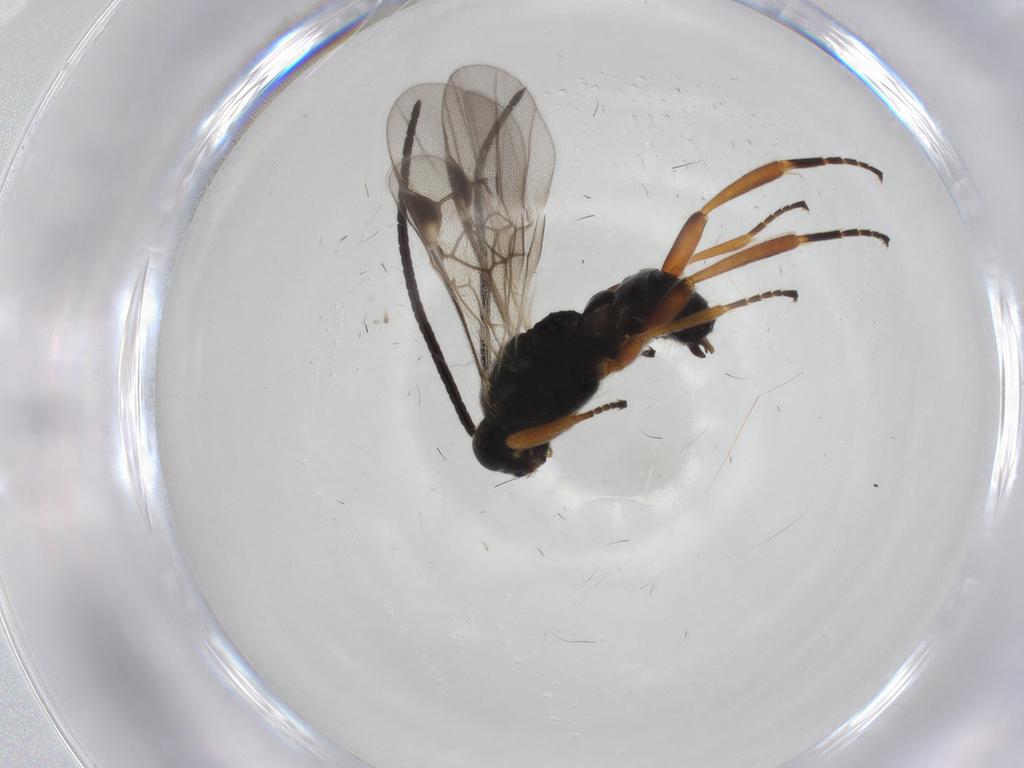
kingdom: Animalia
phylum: Arthropoda
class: Insecta
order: Hymenoptera
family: Braconidae
